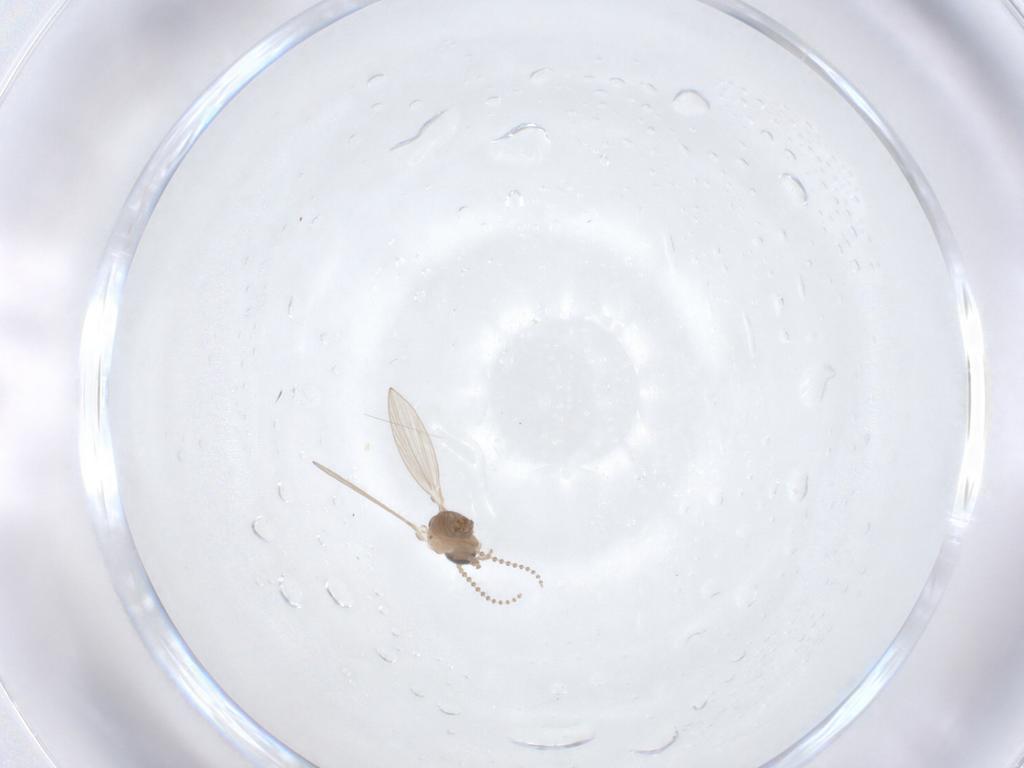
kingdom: Animalia
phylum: Arthropoda
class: Insecta
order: Diptera
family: Psychodidae
